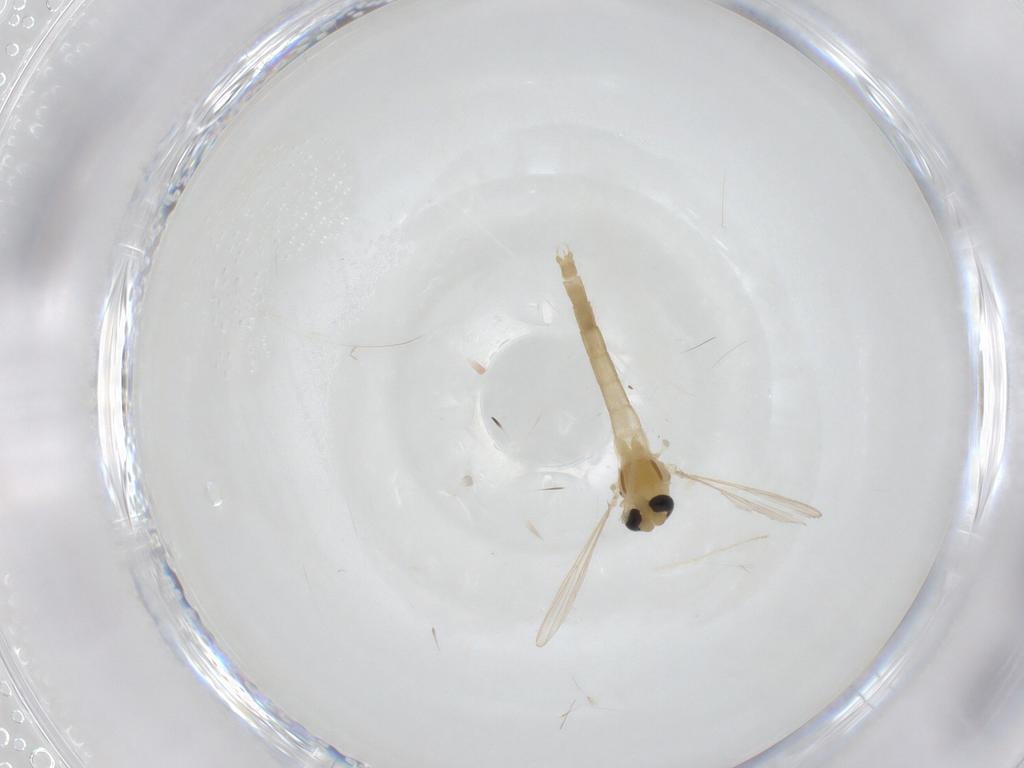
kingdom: Animalia
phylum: Arthropoda
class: Insecta
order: Diptera
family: Chironomidae
